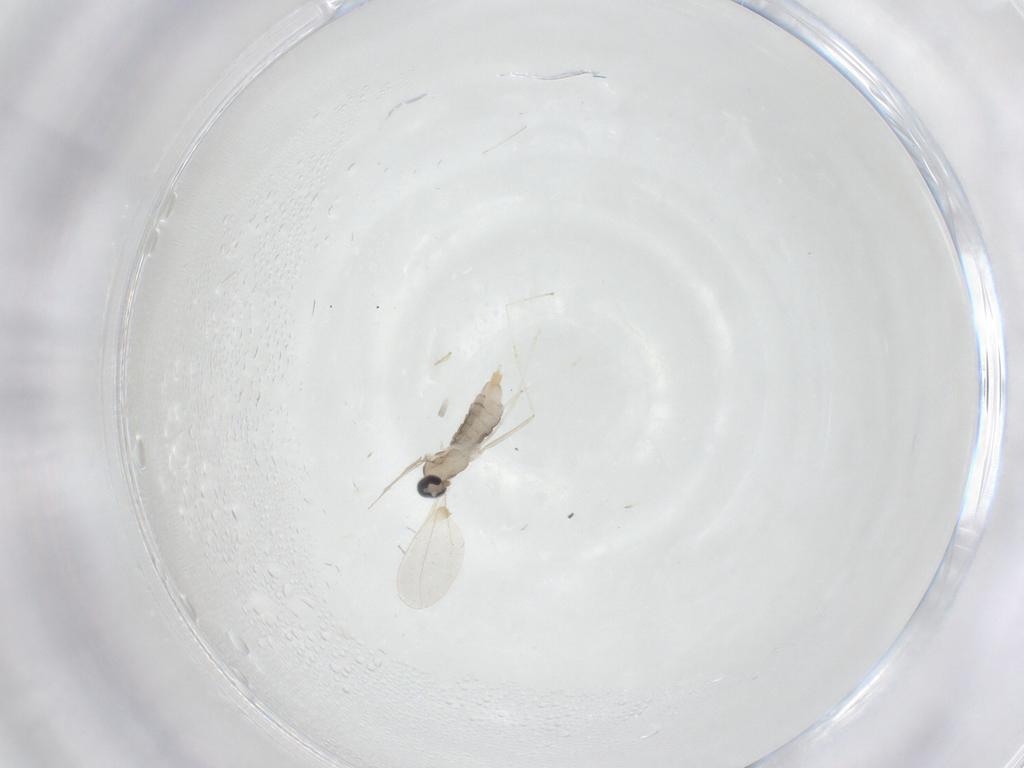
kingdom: Animalia
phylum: Arthropoda
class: Insecta
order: Diptera
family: Cecidomyiidae
